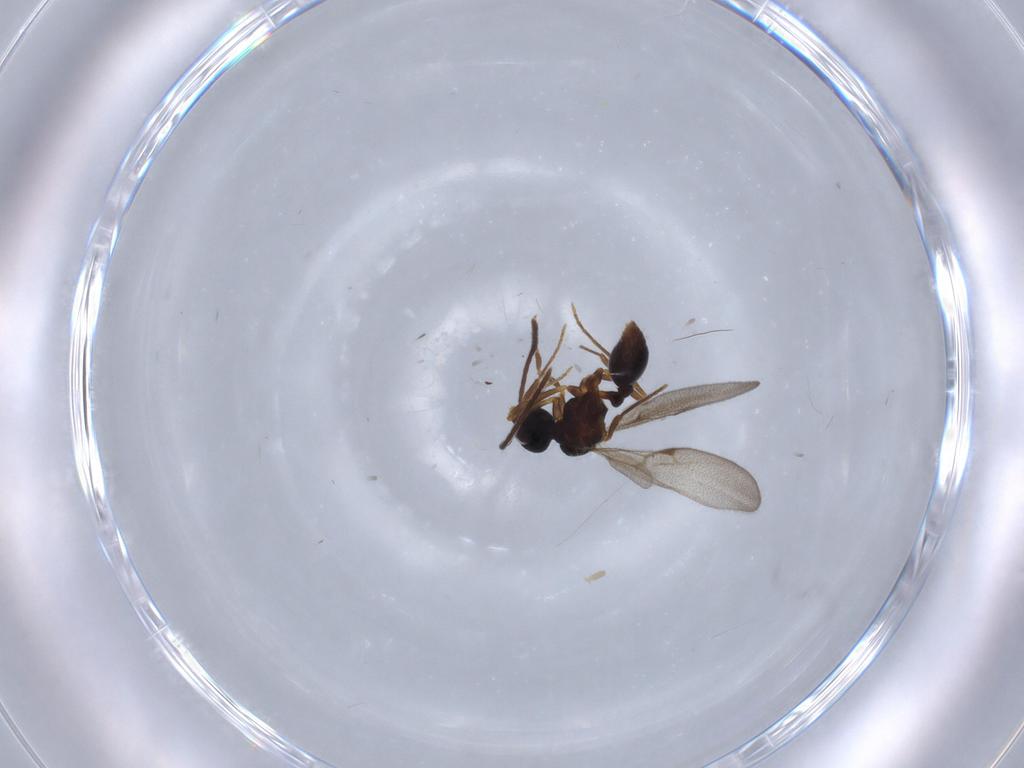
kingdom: Animalia
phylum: Arthropoda
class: Insecta
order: Hymenoptera
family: Formicidae
